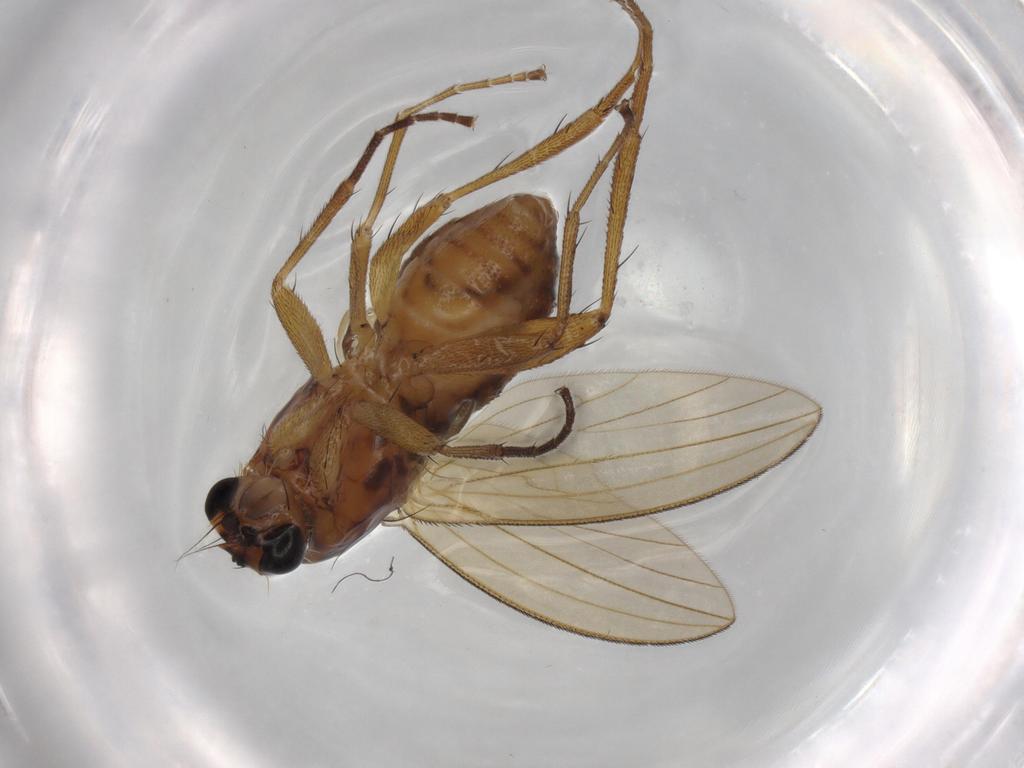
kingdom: Animalia
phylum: Arthropoda
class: Insecta
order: Diptera
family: Lonchopteridae
